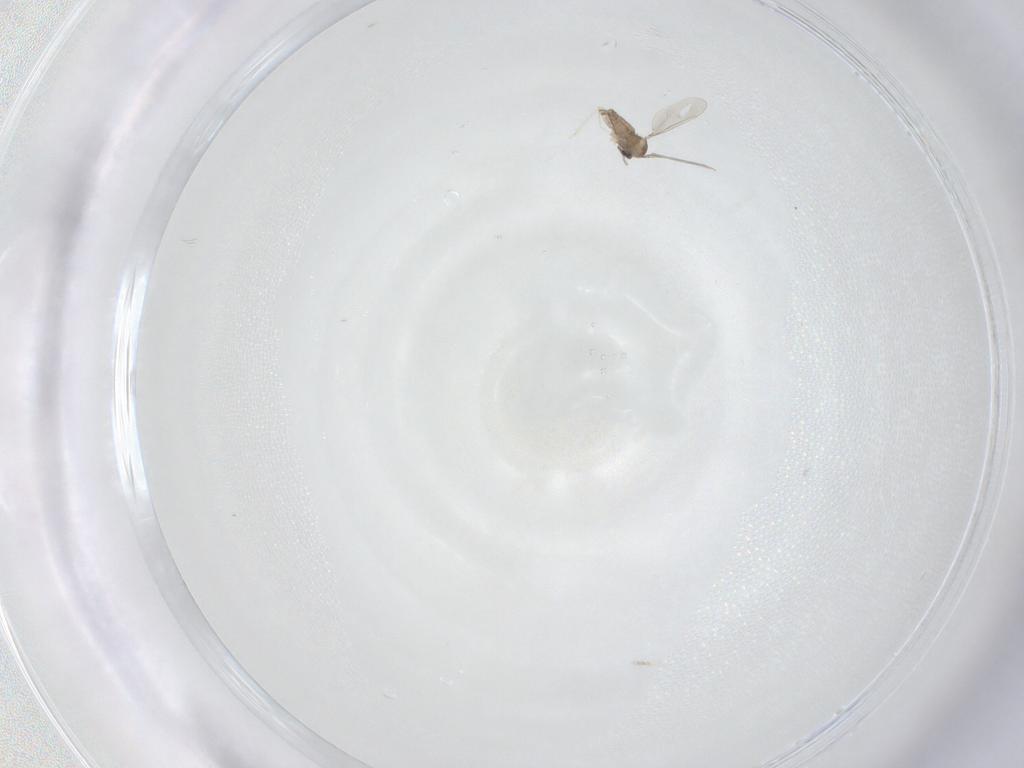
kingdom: Animalia
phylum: Arthropoda
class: Insecta
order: Diptera
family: Cecidomyiidae
